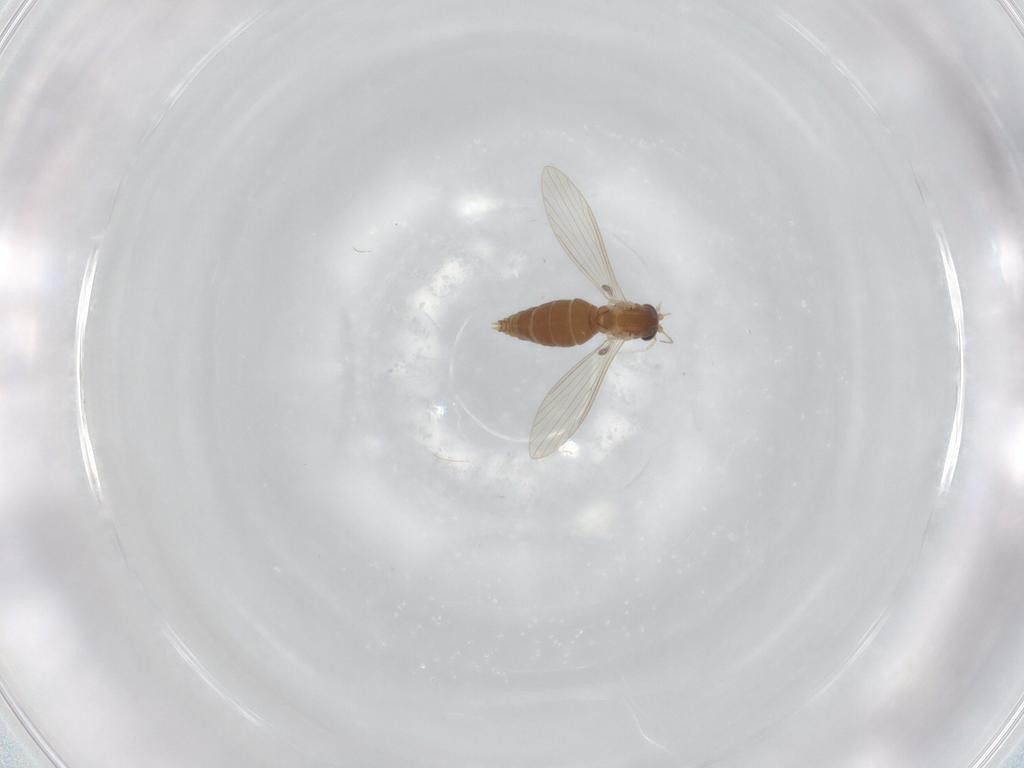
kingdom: Animalia
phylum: Arthropoda
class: Insecta
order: Diptera
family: Psychodidae
